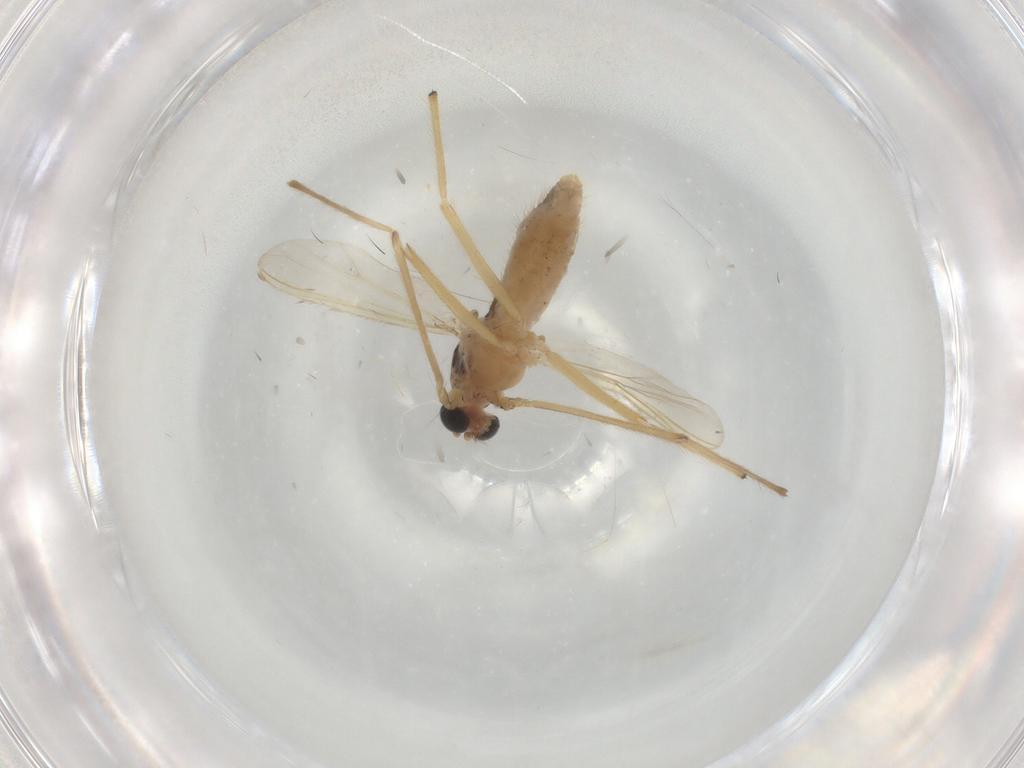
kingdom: Animalia
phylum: Arthropoda
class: Insecta
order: Diptera
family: Chironomidae
